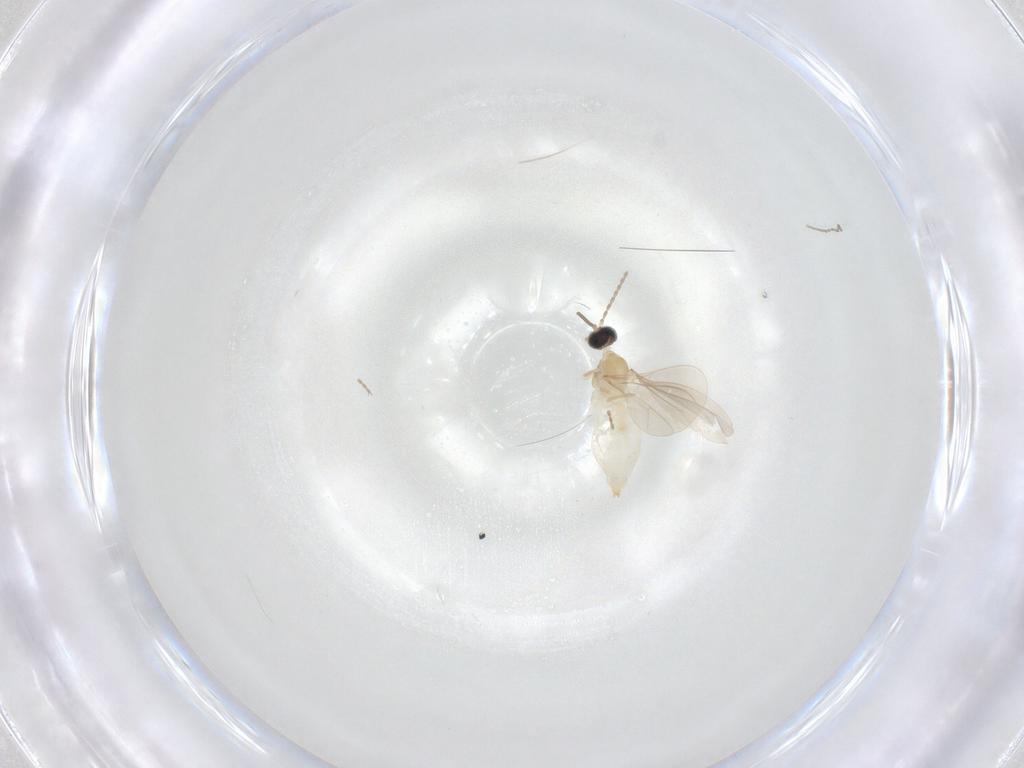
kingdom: Animalia
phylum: Arthropoda
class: Insecta
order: Diptera
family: Cecidomyiidae
